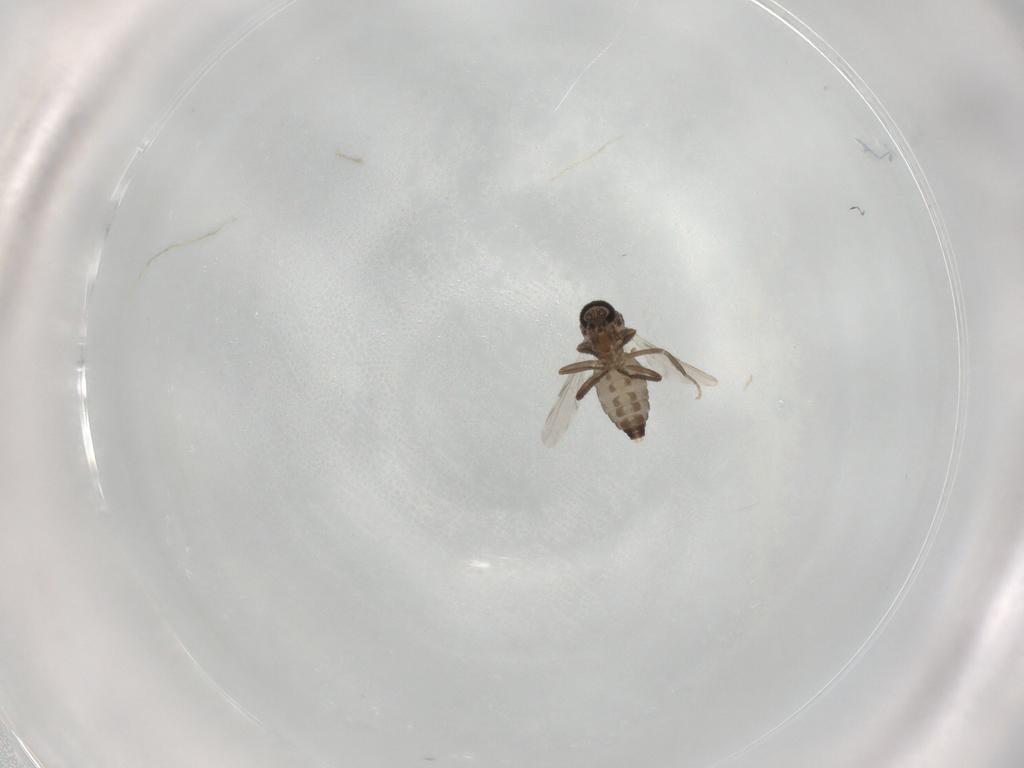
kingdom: Animalia
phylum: Arthropoda
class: Insecta
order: Diptera
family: Ceratopogonidae
